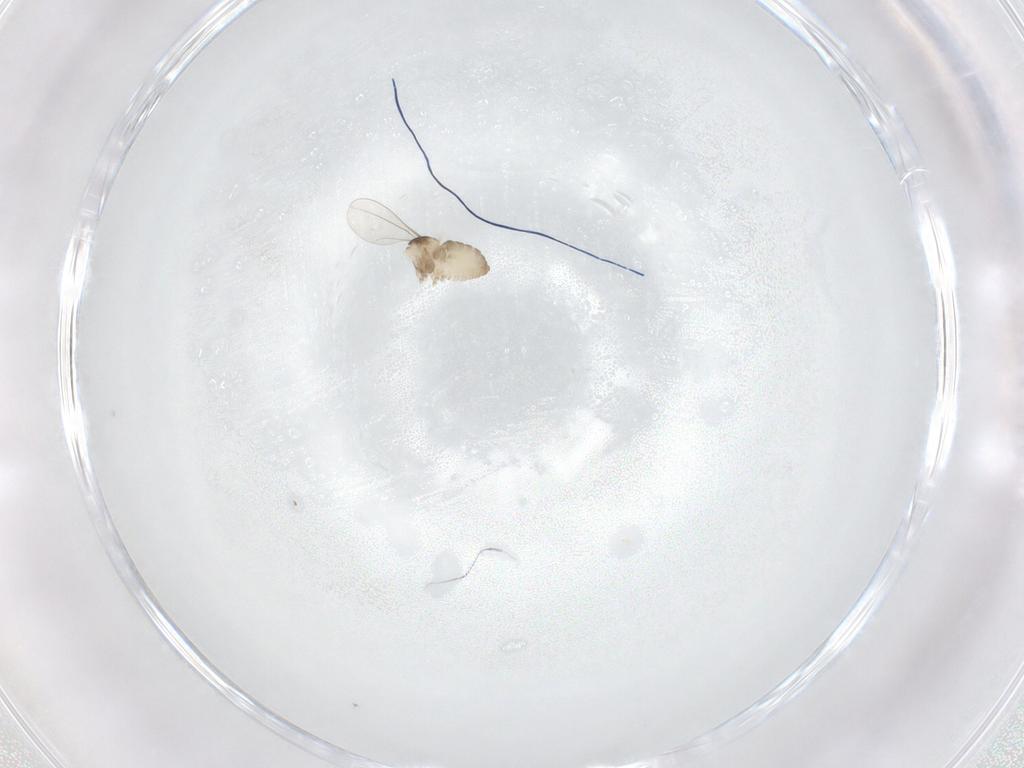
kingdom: Animalia
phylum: Arthropoda
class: Insecta
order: Diptera
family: Cecidomyiidae
